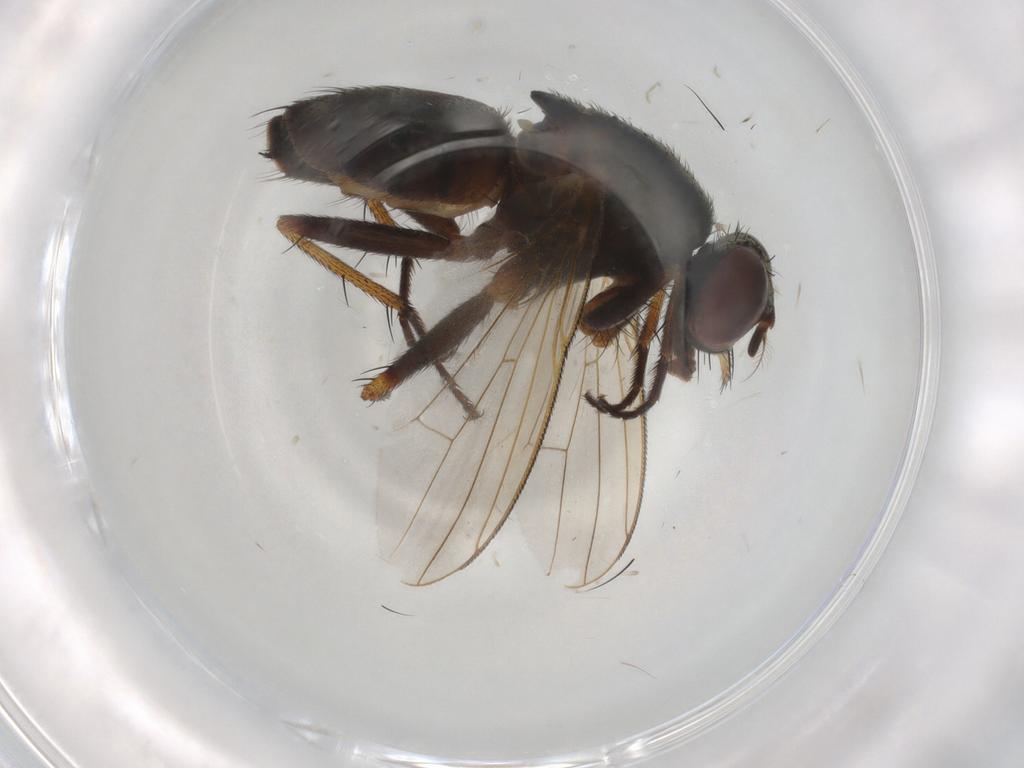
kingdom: Animalia
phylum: Arthropoda
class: Insecta
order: Diptera
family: Muscidae
